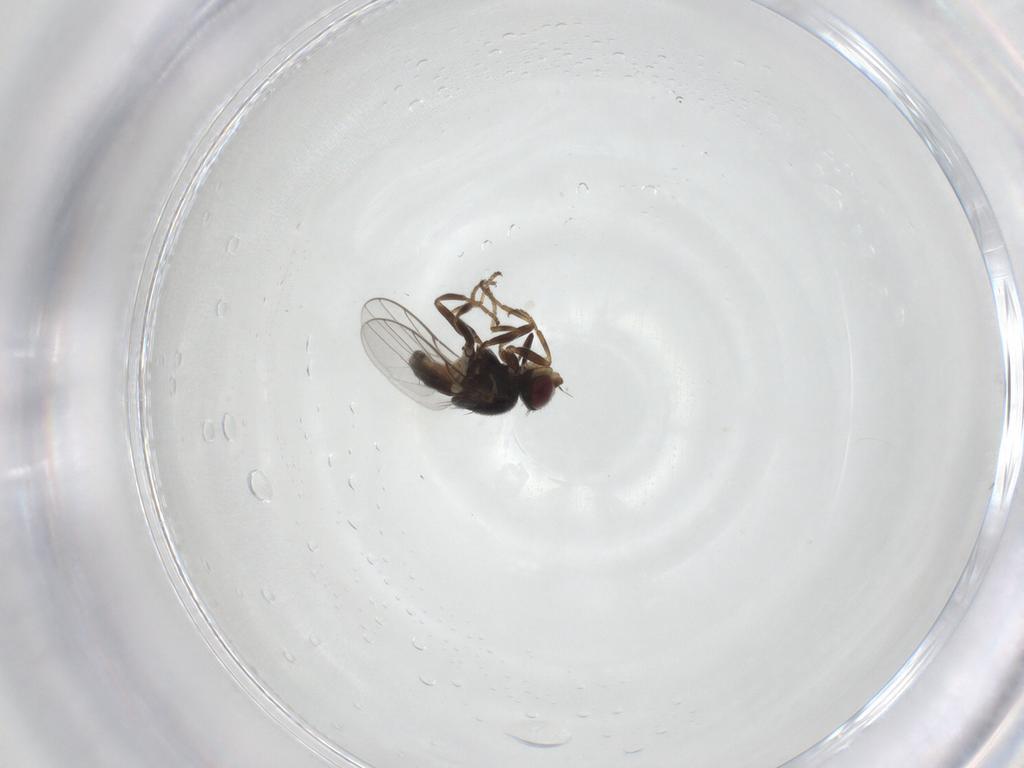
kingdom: Animalia
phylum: Arthropoda
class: Insecta
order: Diptera
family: Chloropidae
